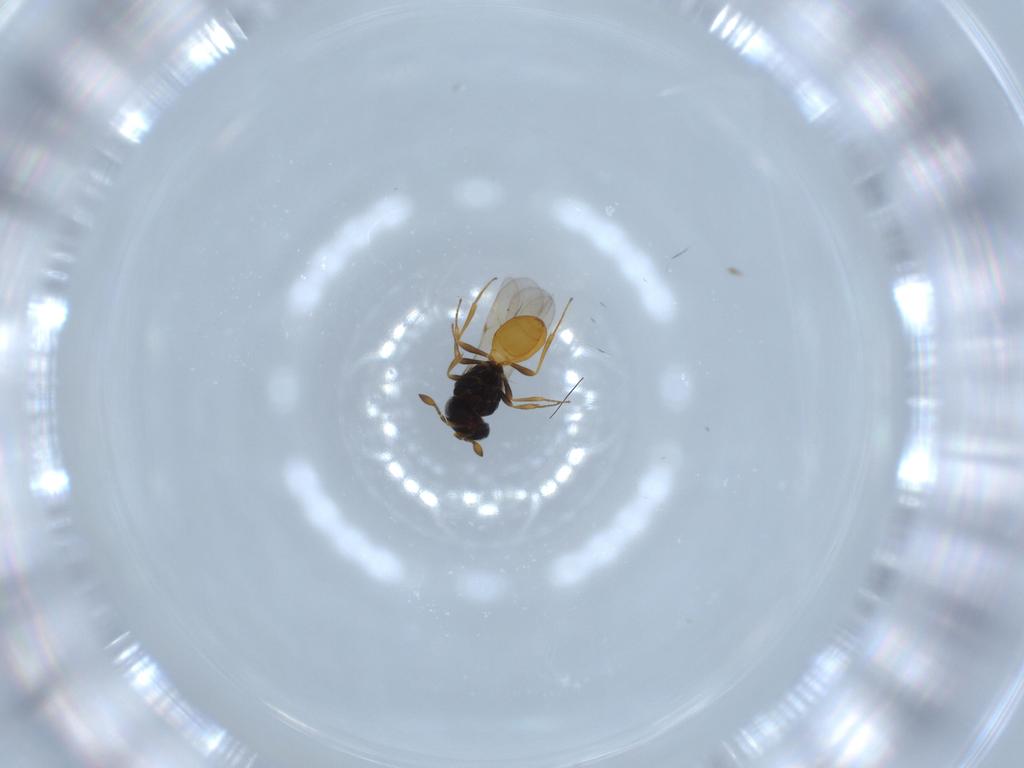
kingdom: Animalia
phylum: Arthropoda
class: Insecta
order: Hymenoptera
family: Scelionidae
